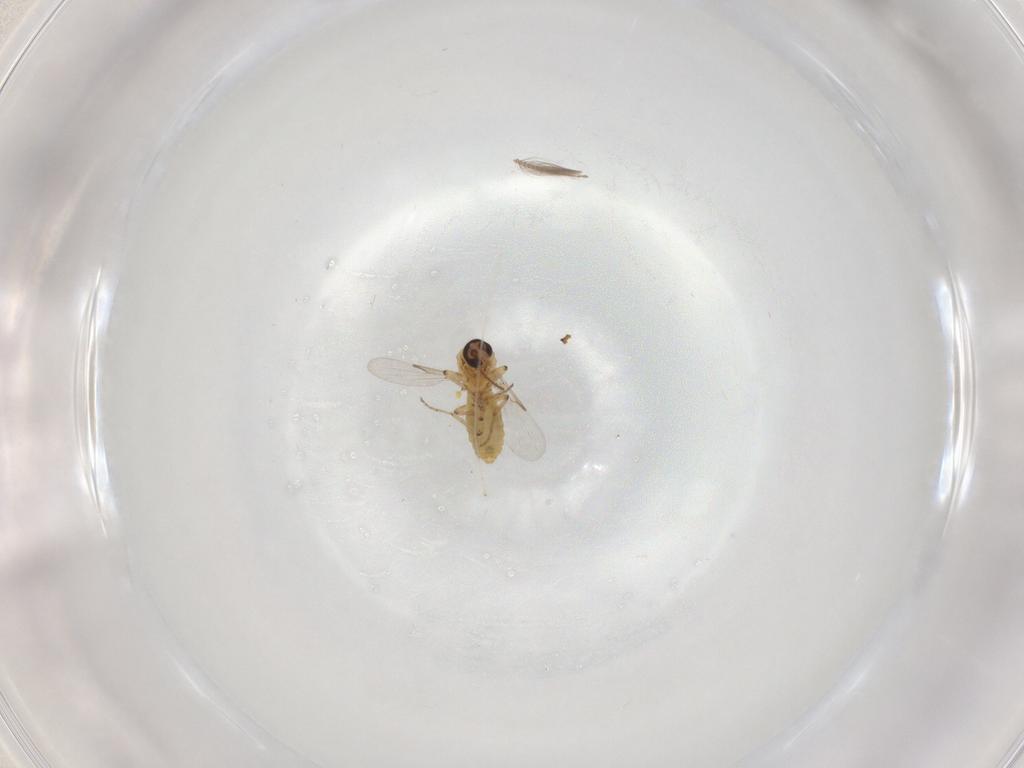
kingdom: Animalia
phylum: Arthropoda
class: Insecta
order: Diptera
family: Ceratopogonidae
